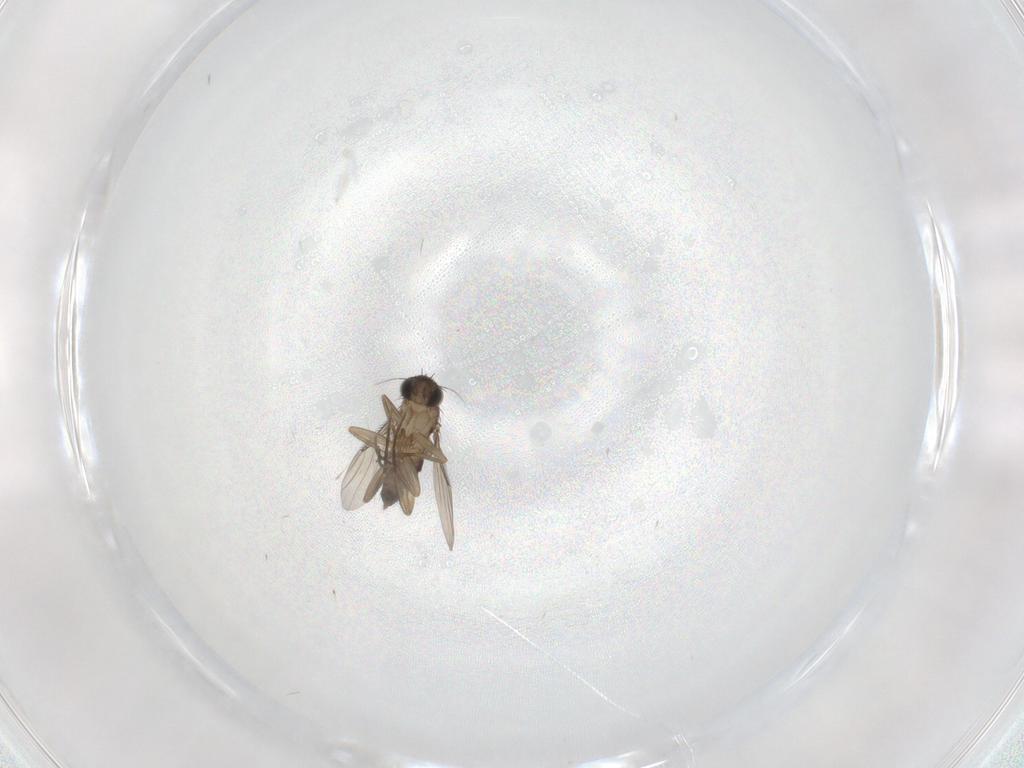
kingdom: Animalia
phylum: Arthropoda
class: Insecta
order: Diptera
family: Phoridae
